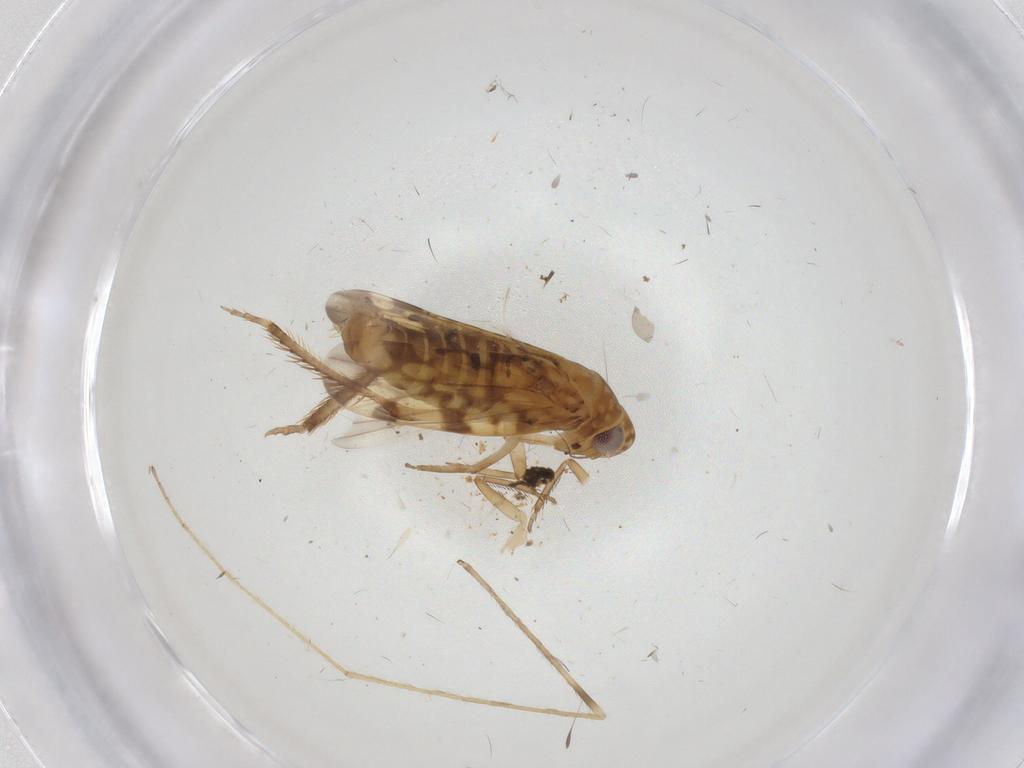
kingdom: Animalia
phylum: Arthropoda
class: Insecta
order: Hemiptera
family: Cicadellidae
